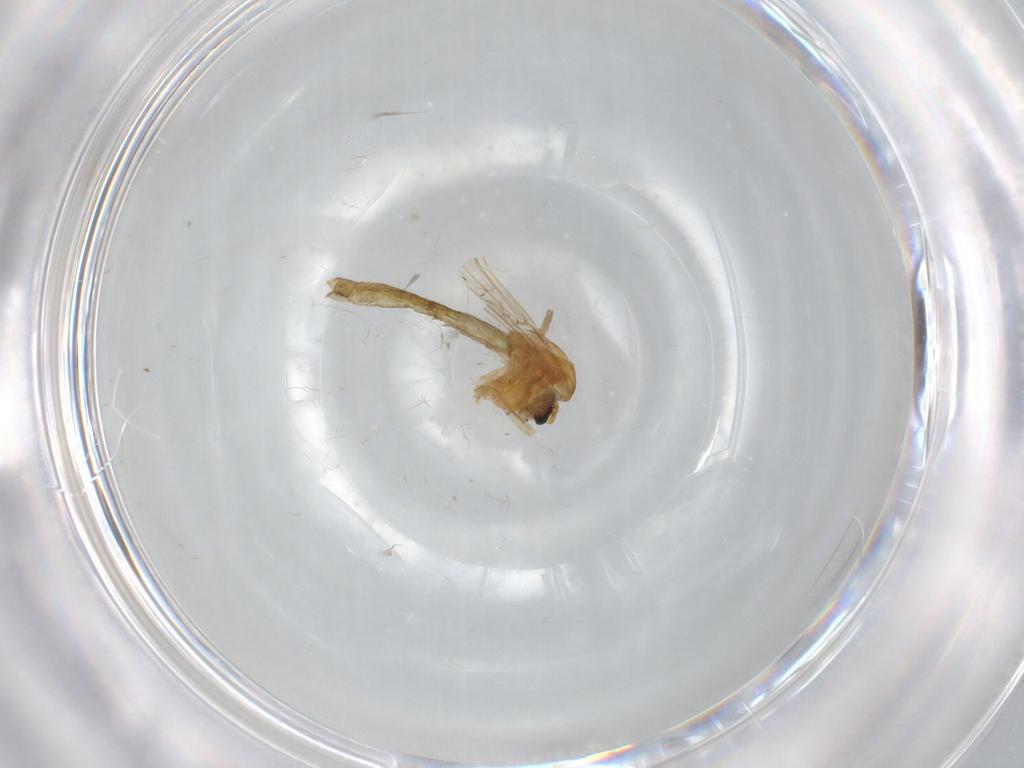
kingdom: Animalia
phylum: Arthropoda
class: Insecta
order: Diptera
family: Chironomidae
